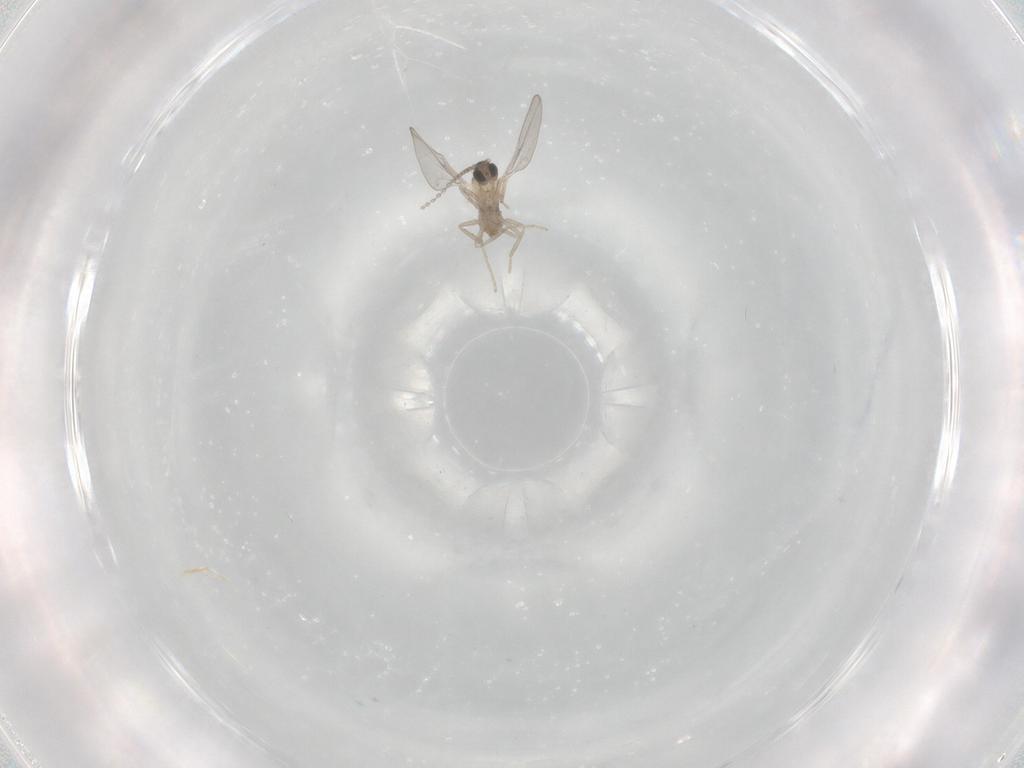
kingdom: Animalia
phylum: Arthropoda
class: Insecta
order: Diptera
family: Cecidomyiidae
